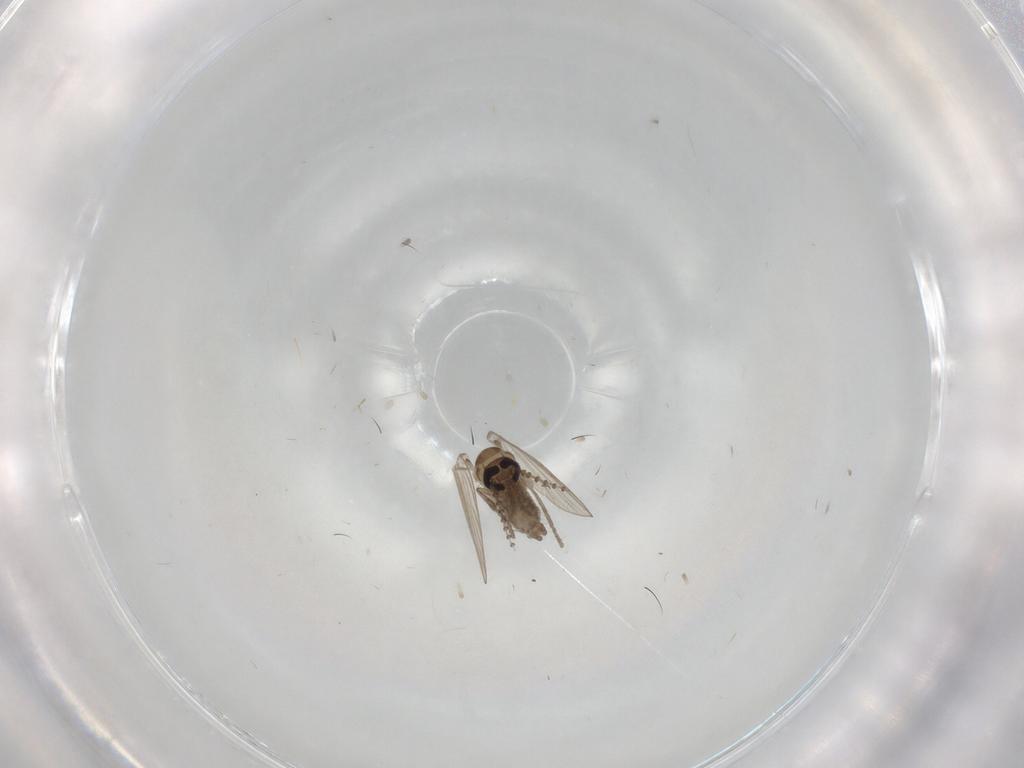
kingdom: Animalia
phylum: Arthropoda
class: Insecta
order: Diptera
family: Psychodidae
